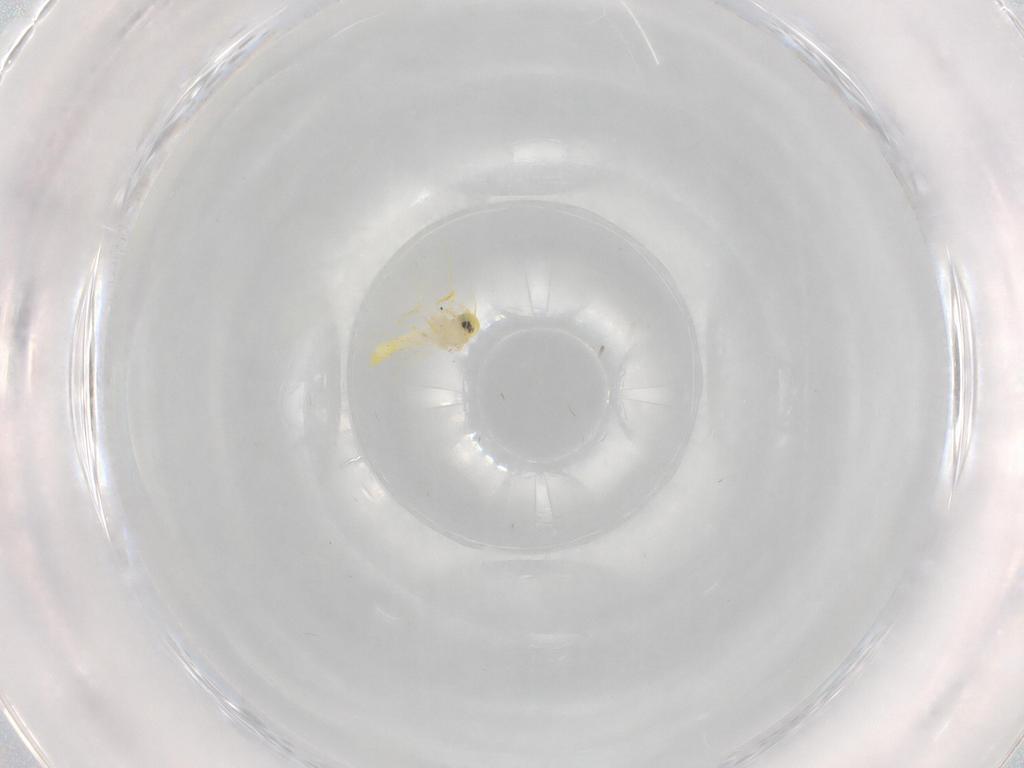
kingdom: Animalia
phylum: Arthropoda
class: Insecta
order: Hemiptera
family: Aleyrodidae
